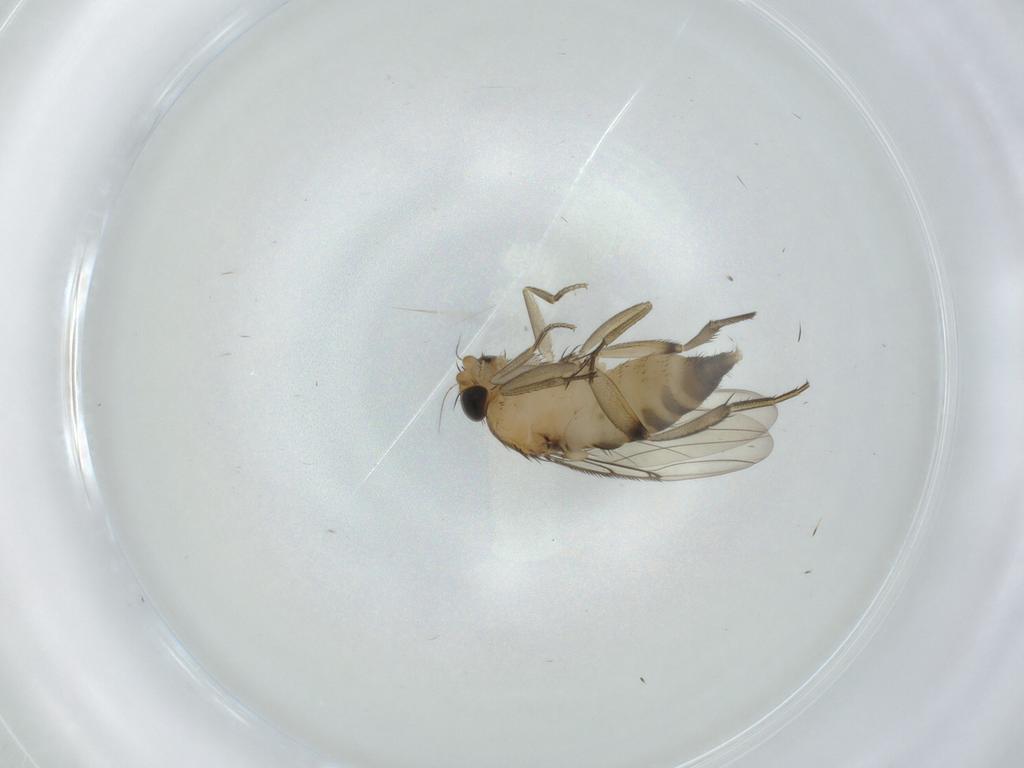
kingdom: Animalia
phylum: Arthropoda
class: Insecta
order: Diptera
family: Phoridae
